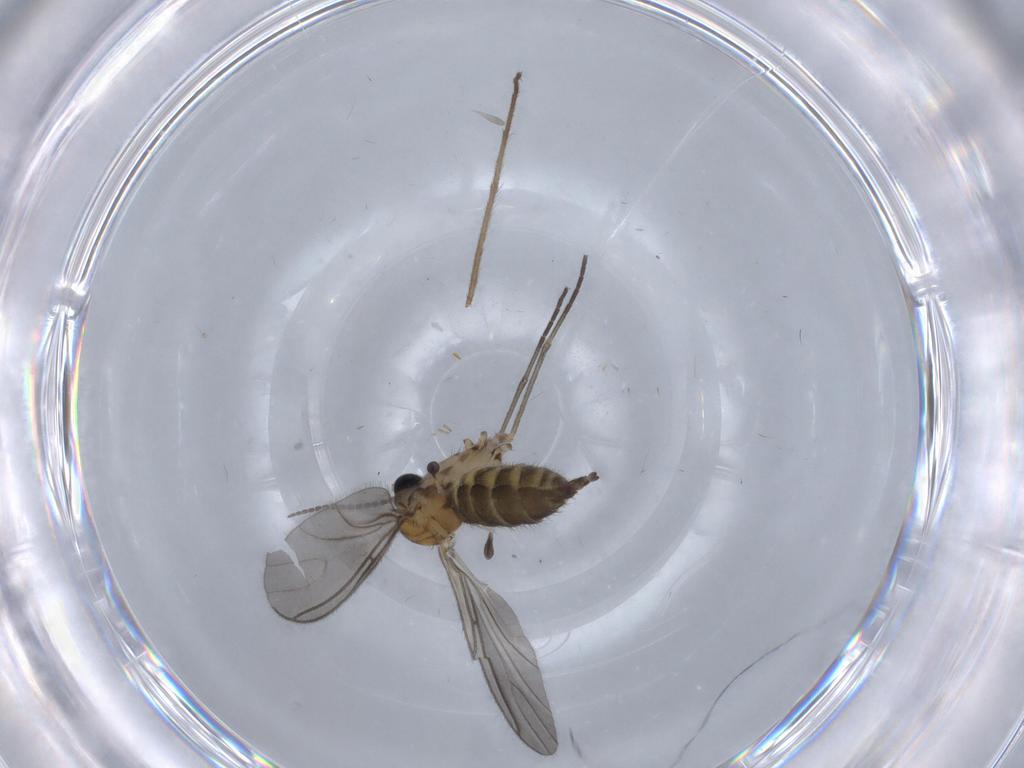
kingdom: Animalia
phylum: Arthropoda
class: Insecta
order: Diptera
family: Sciaridae
